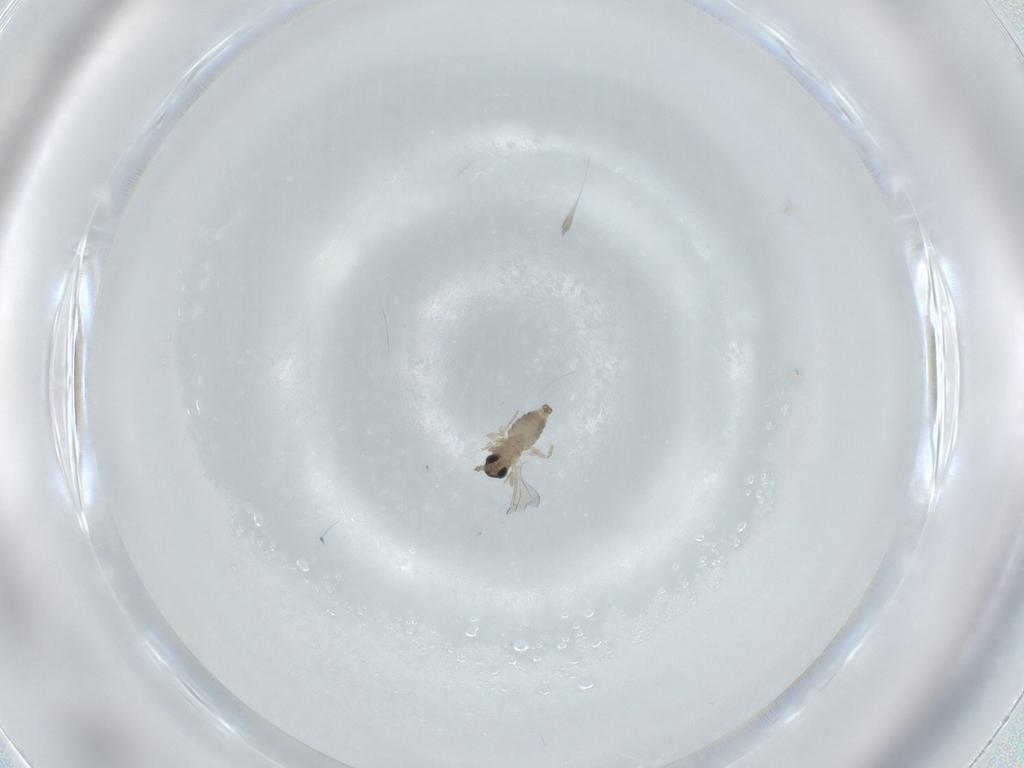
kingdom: Animalia
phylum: Arthropoda
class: Insecta
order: Diptera
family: Cecidomyiidae
